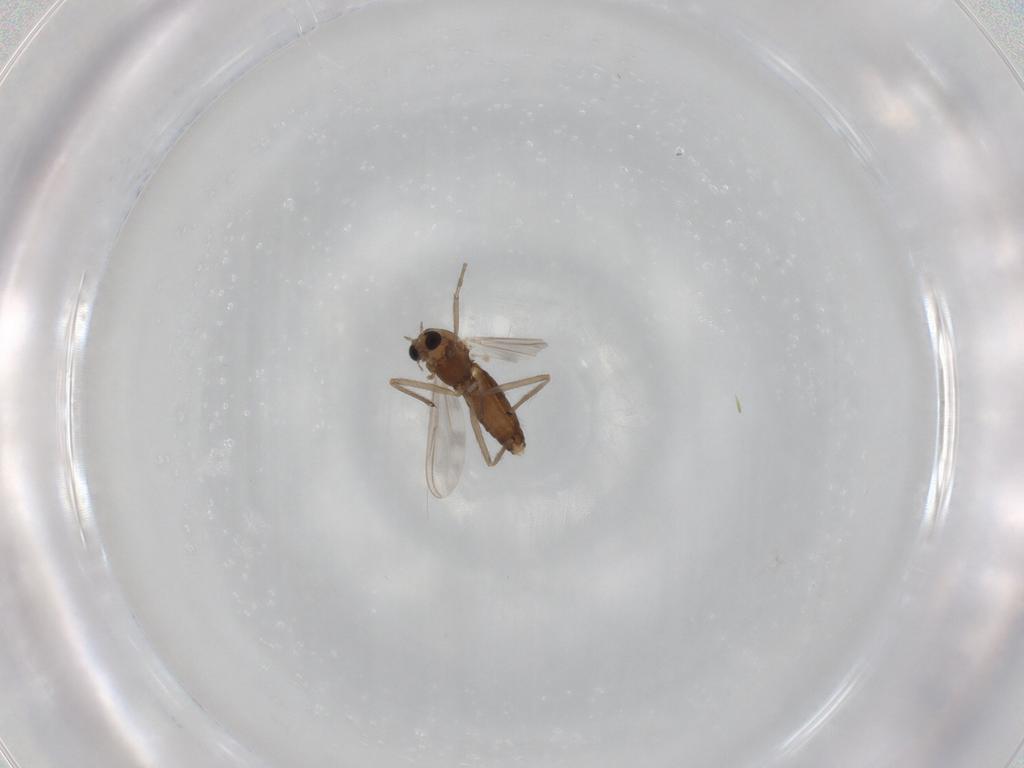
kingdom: Animalia
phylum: Arthropoda
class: Insecta
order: Diptera
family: Chironomidae
